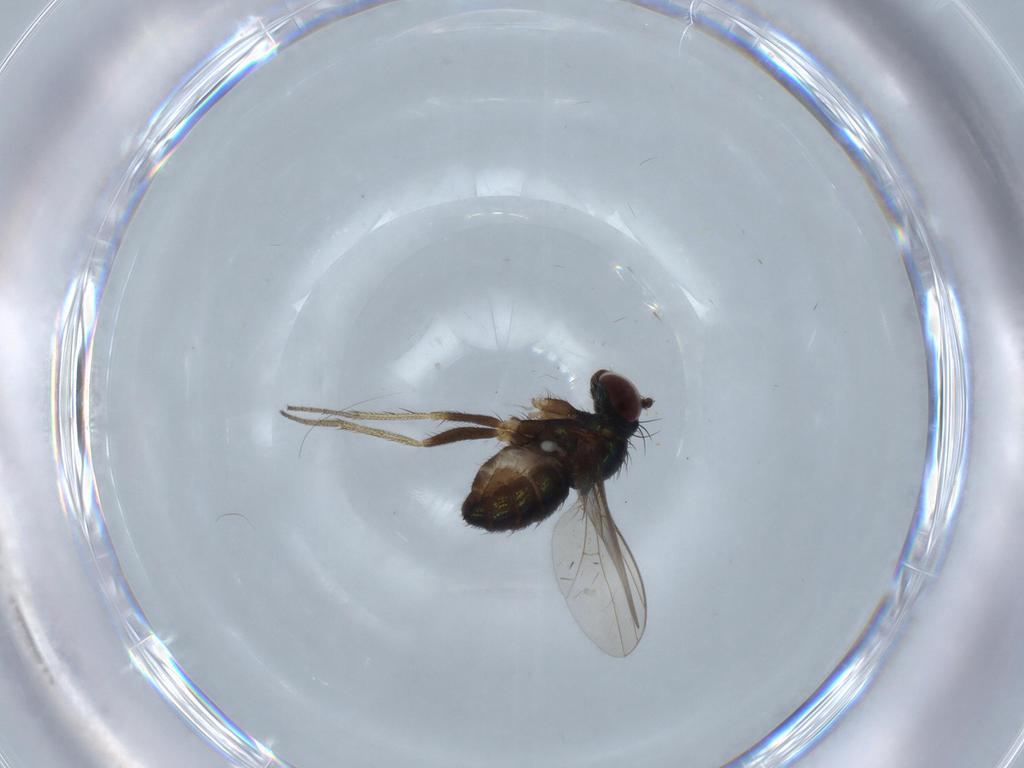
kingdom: Animalia
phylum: Arthropoda
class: Insecta
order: Diptera
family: Dolichopodidae
